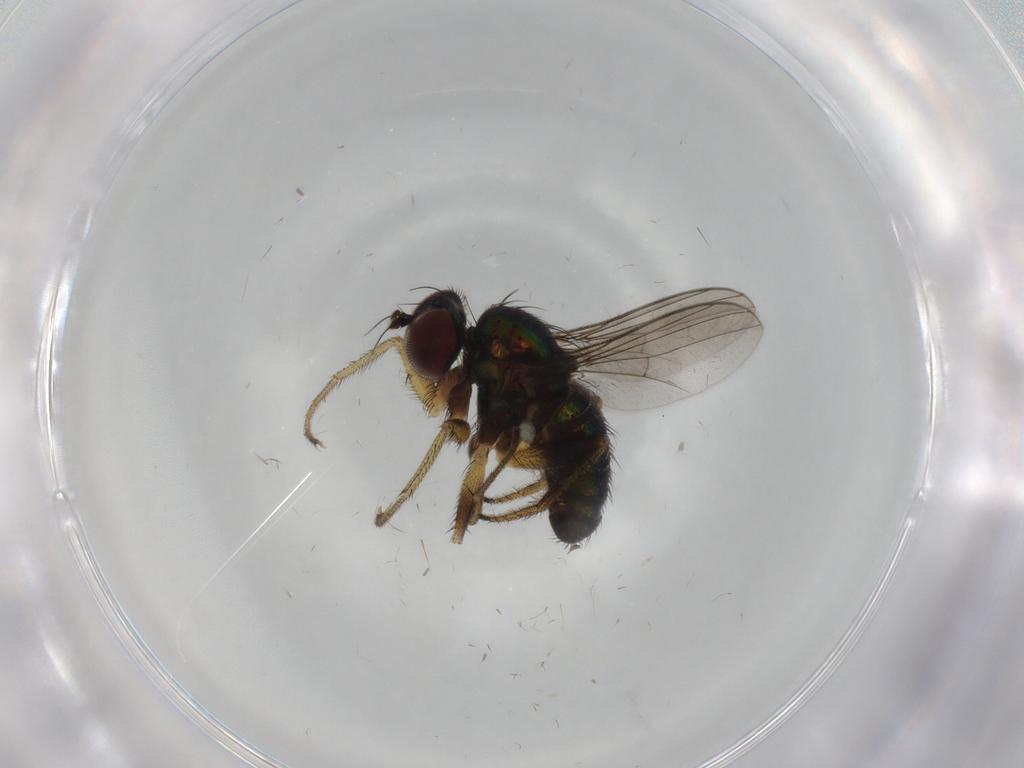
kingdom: Animalia
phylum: Arthropoda
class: Insecta
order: Diptera
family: Dolichopodidae
